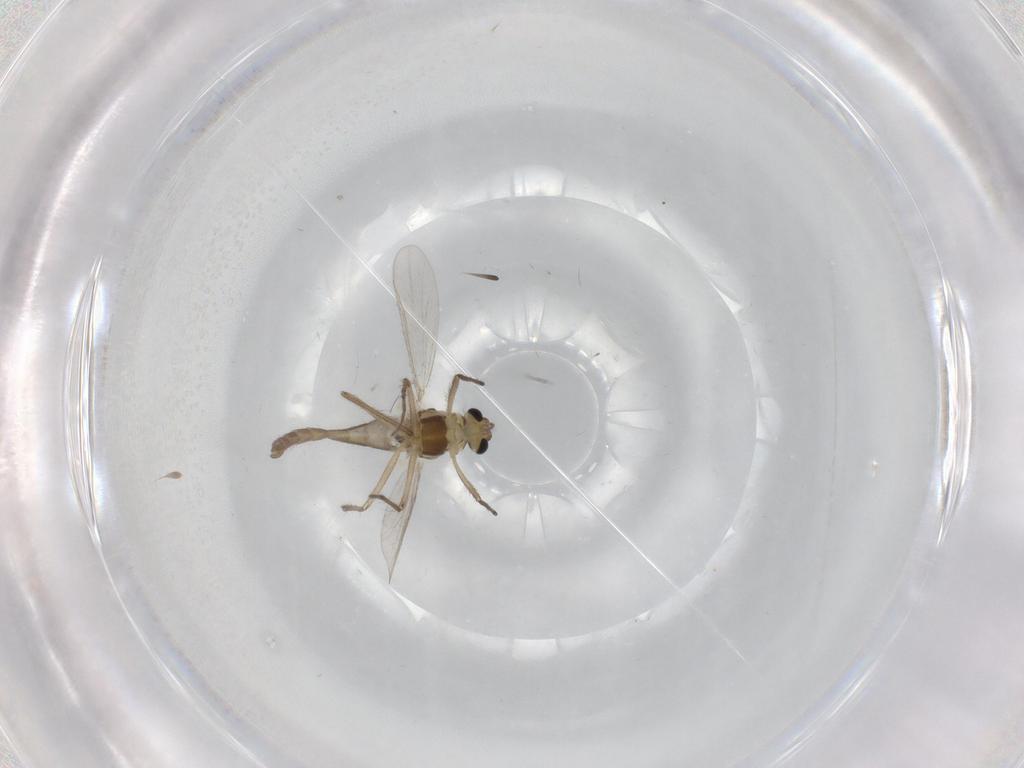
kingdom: Animalia
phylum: Arthropoda
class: Insecta
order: Diptera
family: Chironomidae
